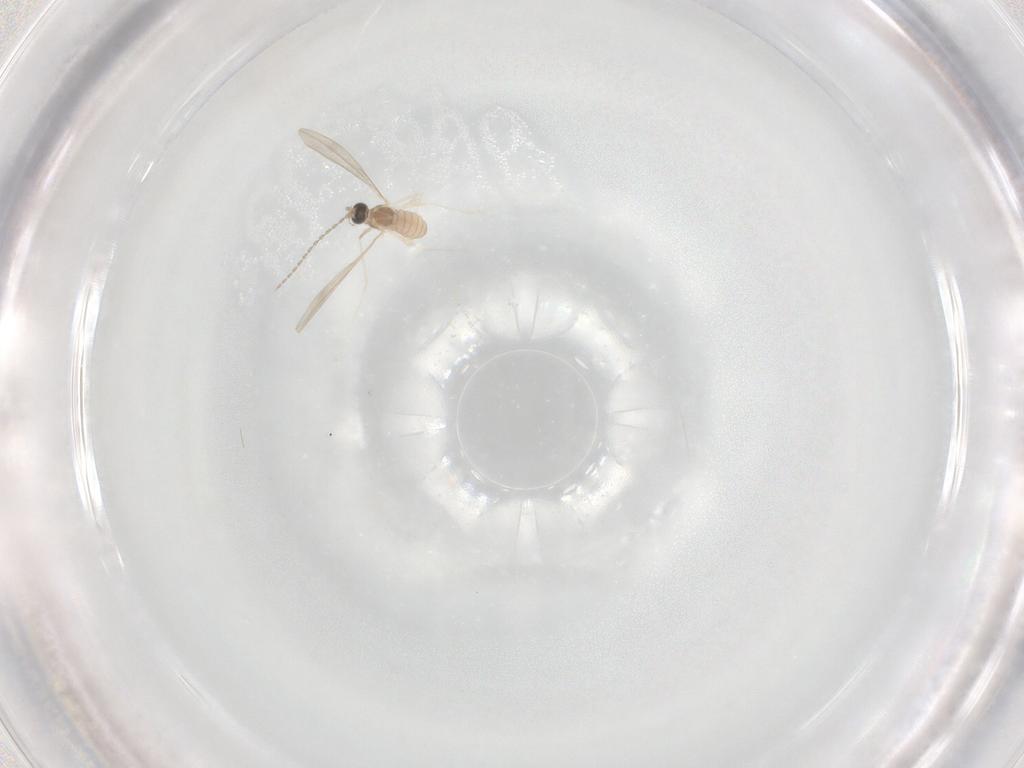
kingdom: Animalia
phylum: Arthropoda
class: Insecta
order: Diptera
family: Cecidomyiidae
